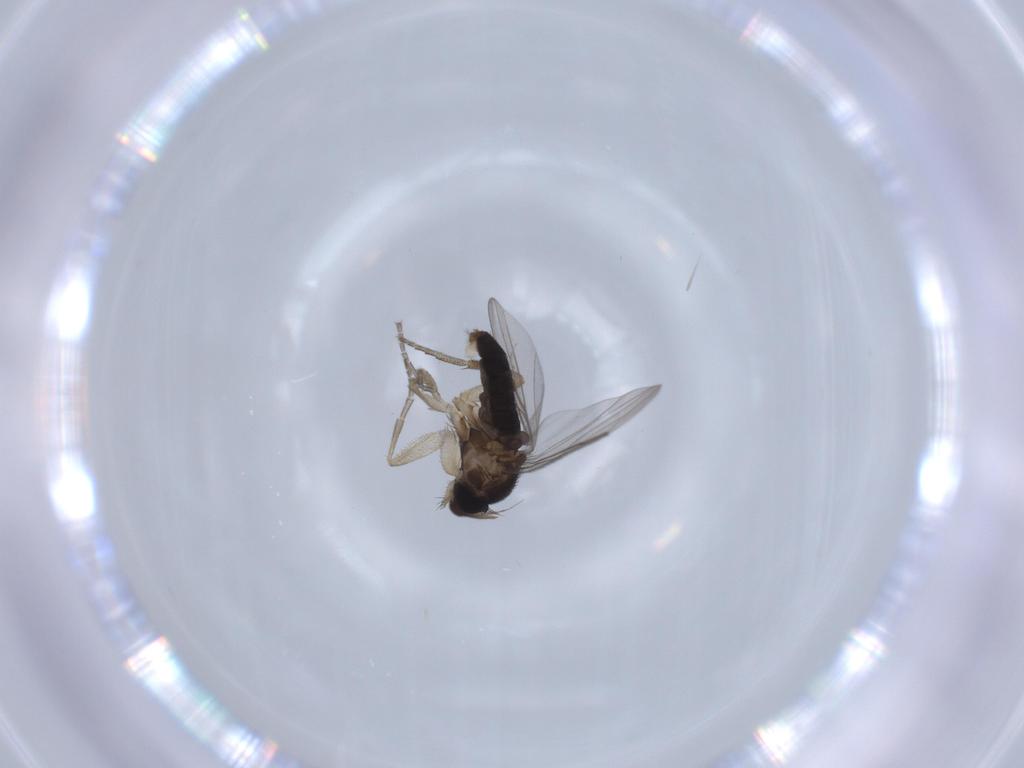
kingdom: Animalia
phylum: Arthropoda
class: Insecta
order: Diptera
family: Phoridae
